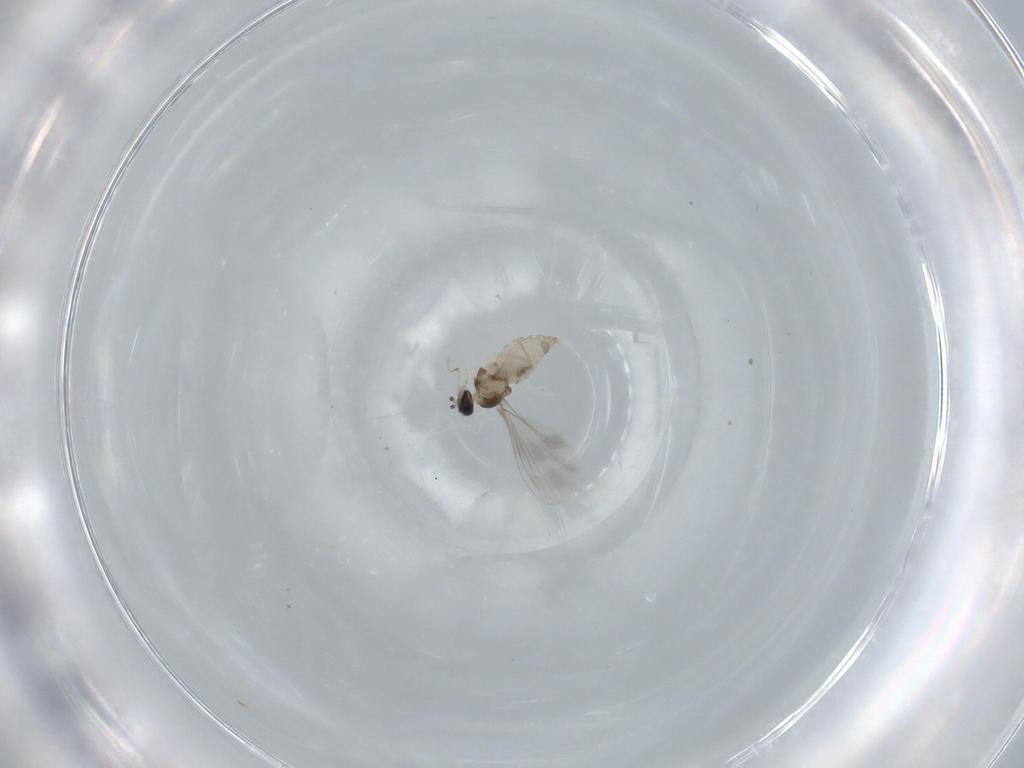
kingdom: Animalia
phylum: Arthropoda
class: Insecta
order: Diptera
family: Cecidomyiidae
